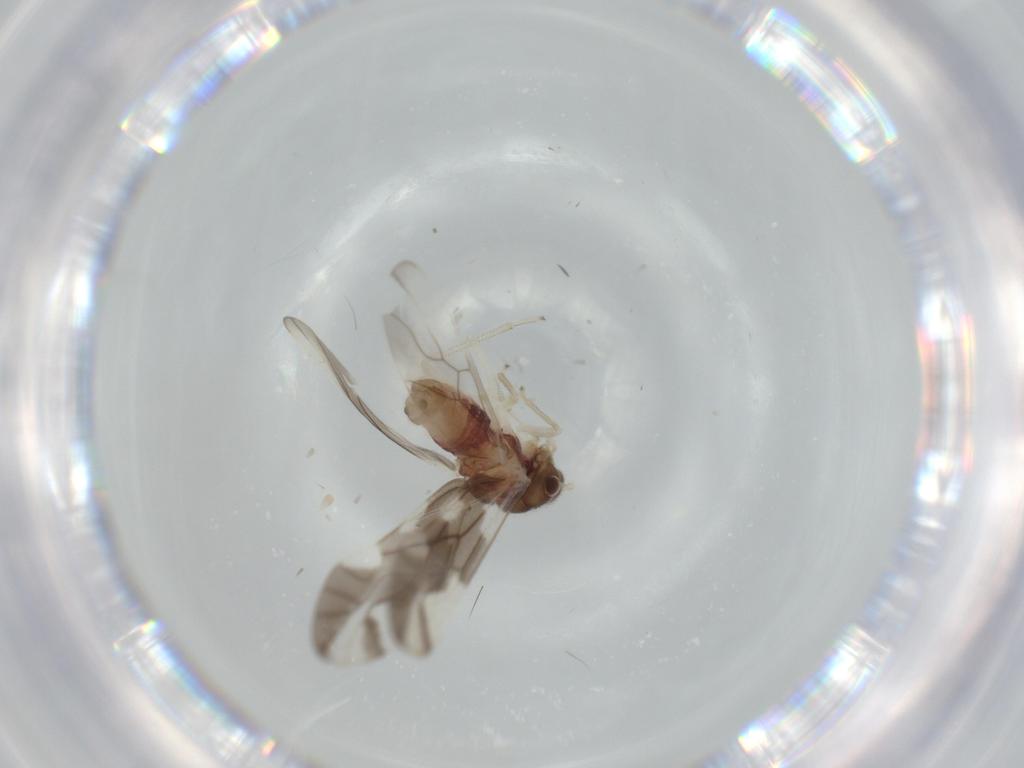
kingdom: Animalia
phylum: Arthropoda
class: Insecta
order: Psocodea
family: Caeciliusidae
